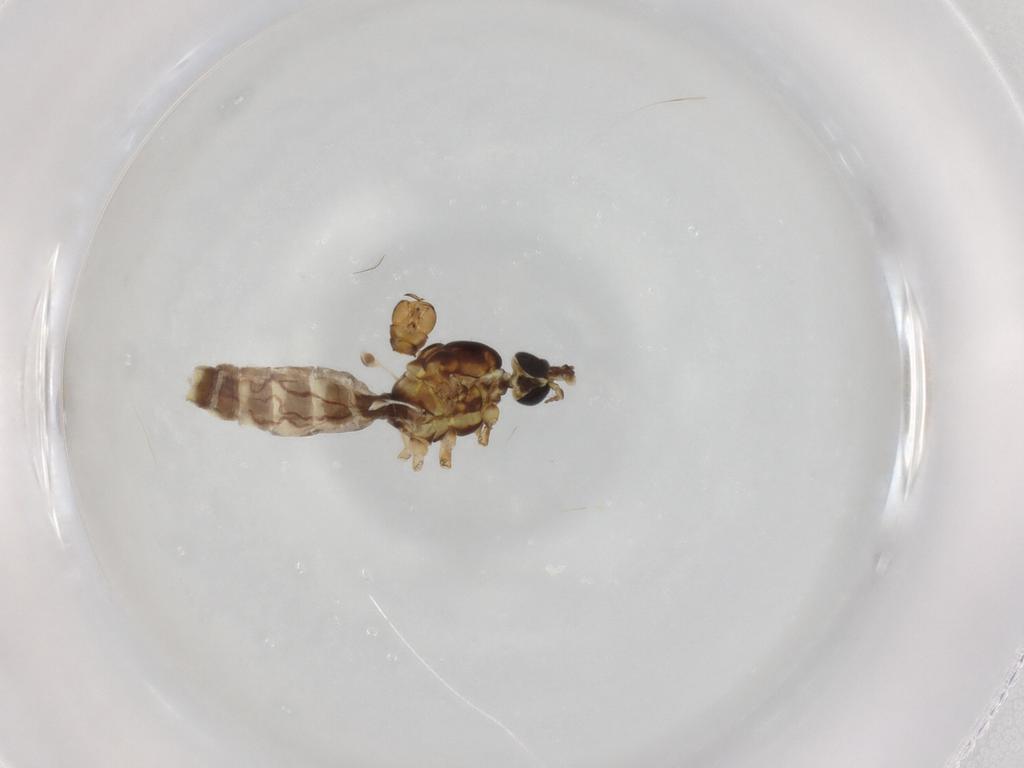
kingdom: Animalia
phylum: Arthropoda
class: Insecta
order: Diptera
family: Limoniidae
